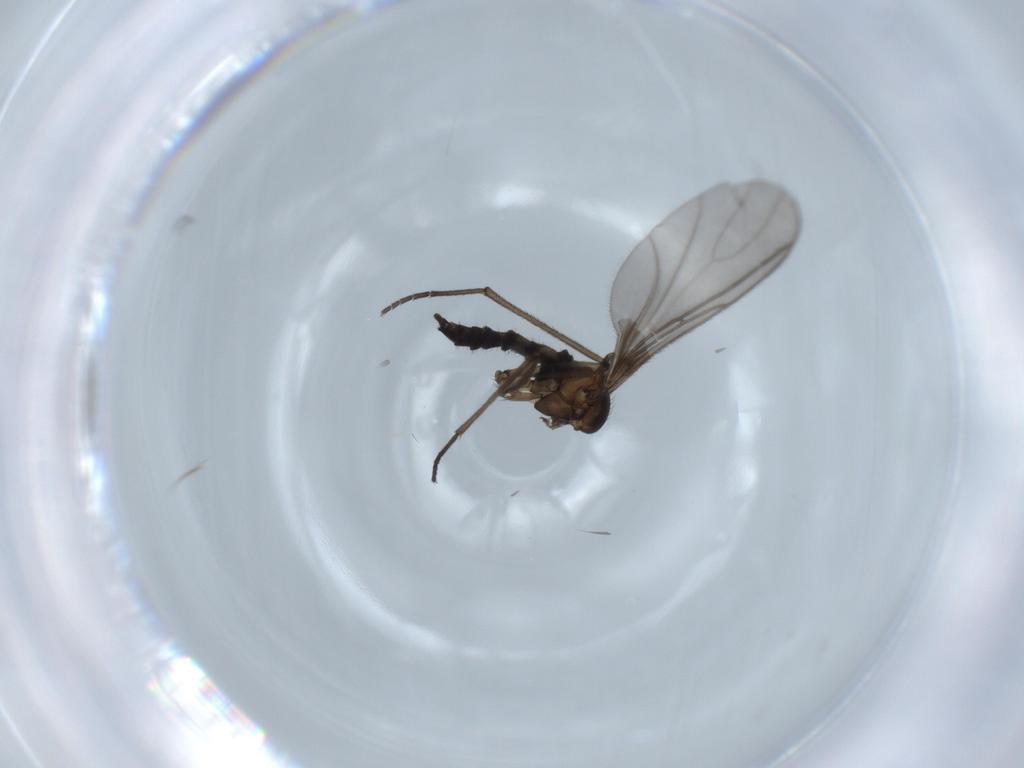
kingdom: Animalia
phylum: Arthropoda
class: Insecta
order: Diptera
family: Sciaridae
